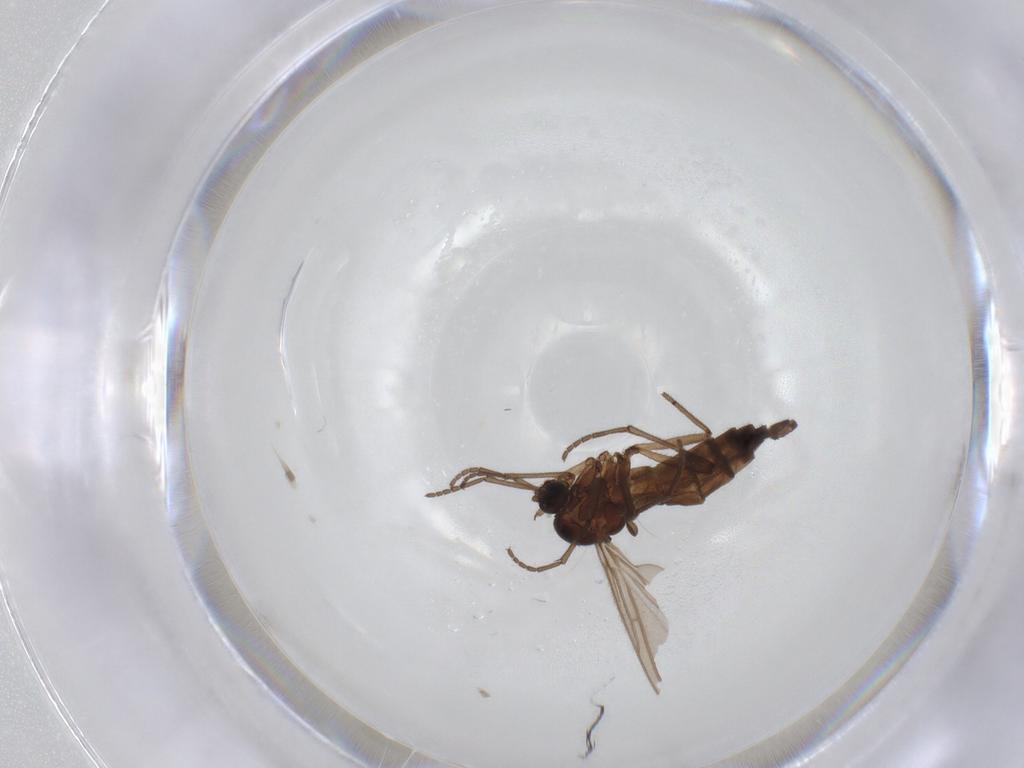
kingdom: Animalia
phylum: Arthropoda
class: Insecta
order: Diptera
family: Sciaridae
